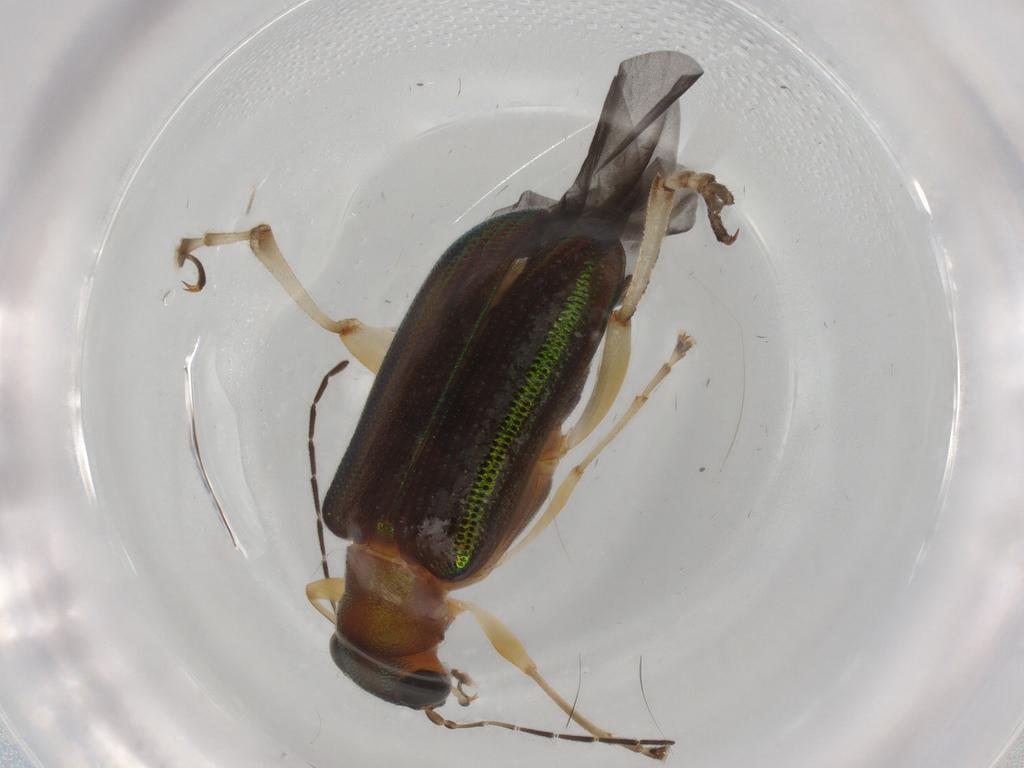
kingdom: Animalia
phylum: Arthropoda
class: Insecta
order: Coleoptera
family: Chrysomelidae
